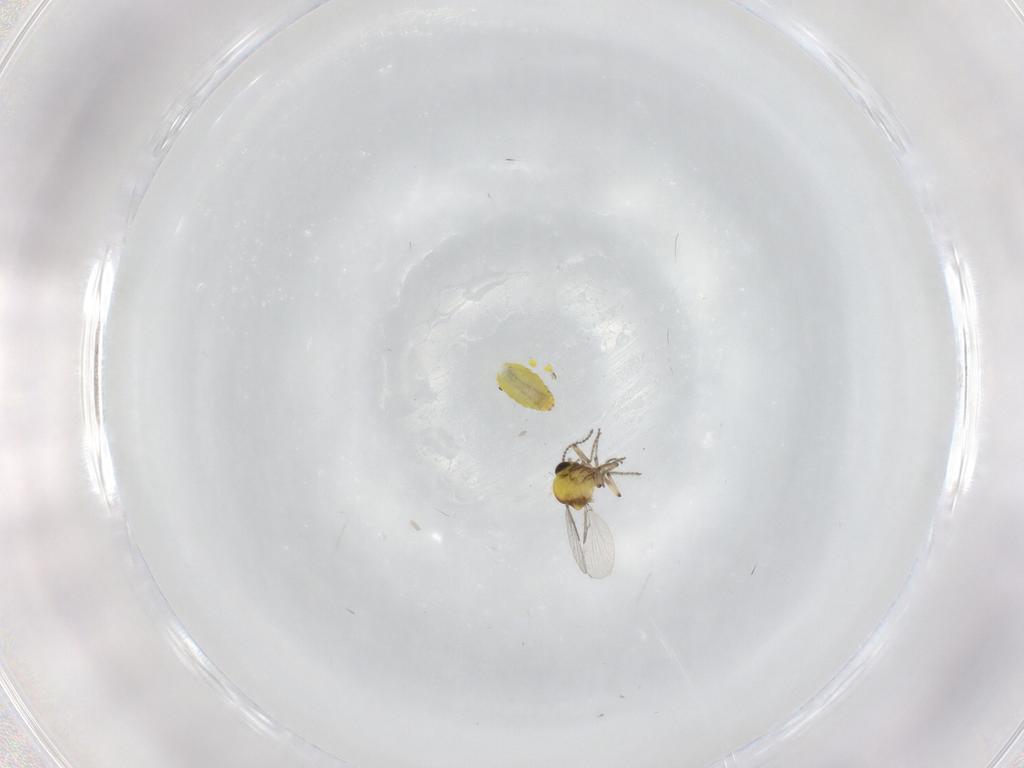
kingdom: Animalia
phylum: Arthropoda
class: Insecta
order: Diptera
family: Ceratopogonidae
